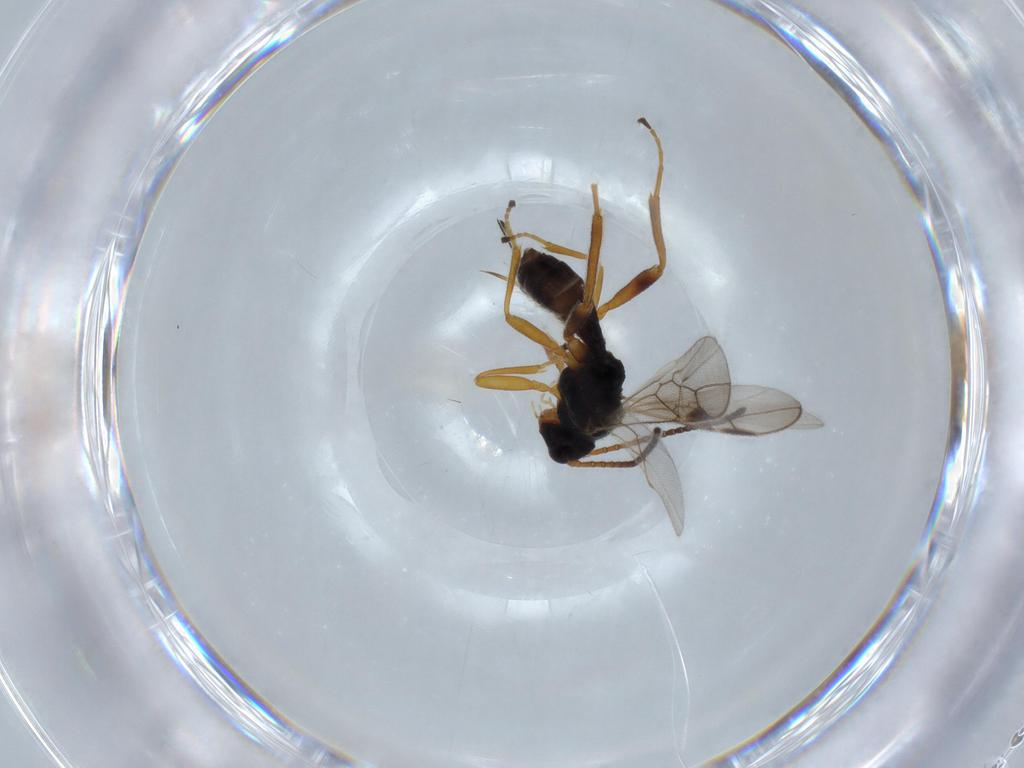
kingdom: Animalia
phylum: Arthropoda
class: Insecta
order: Hymenoptera
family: Braconidae
